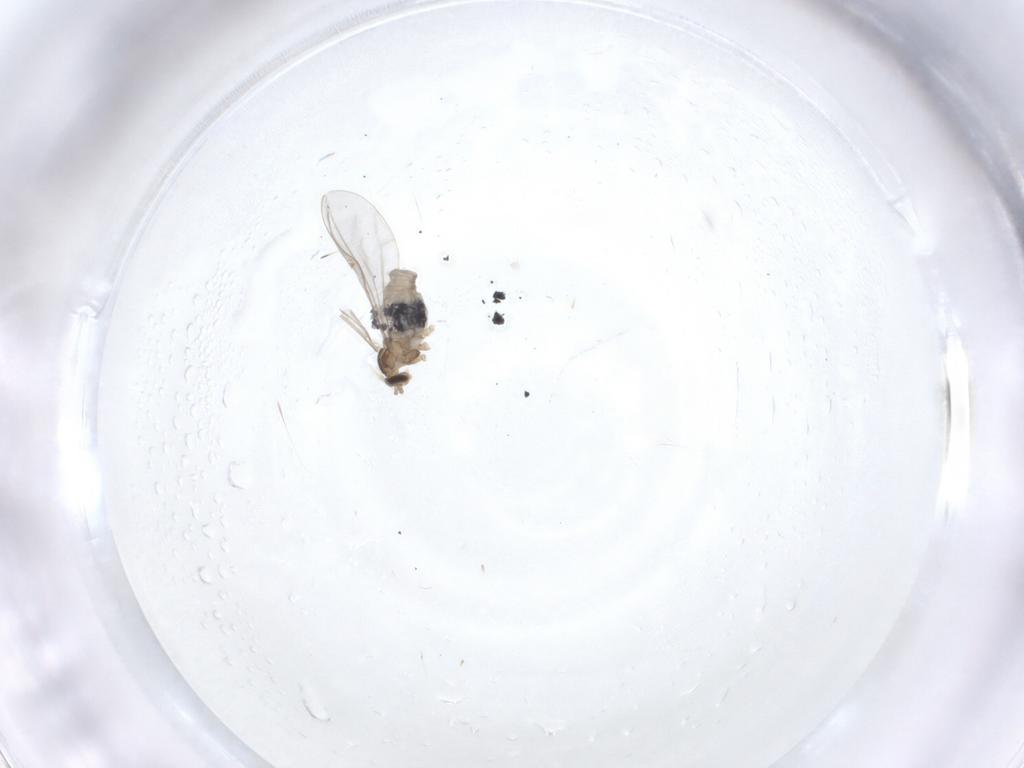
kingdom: Animalia
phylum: Arthropoda
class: Insecta
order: Diptera
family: Cecidomyiidae
